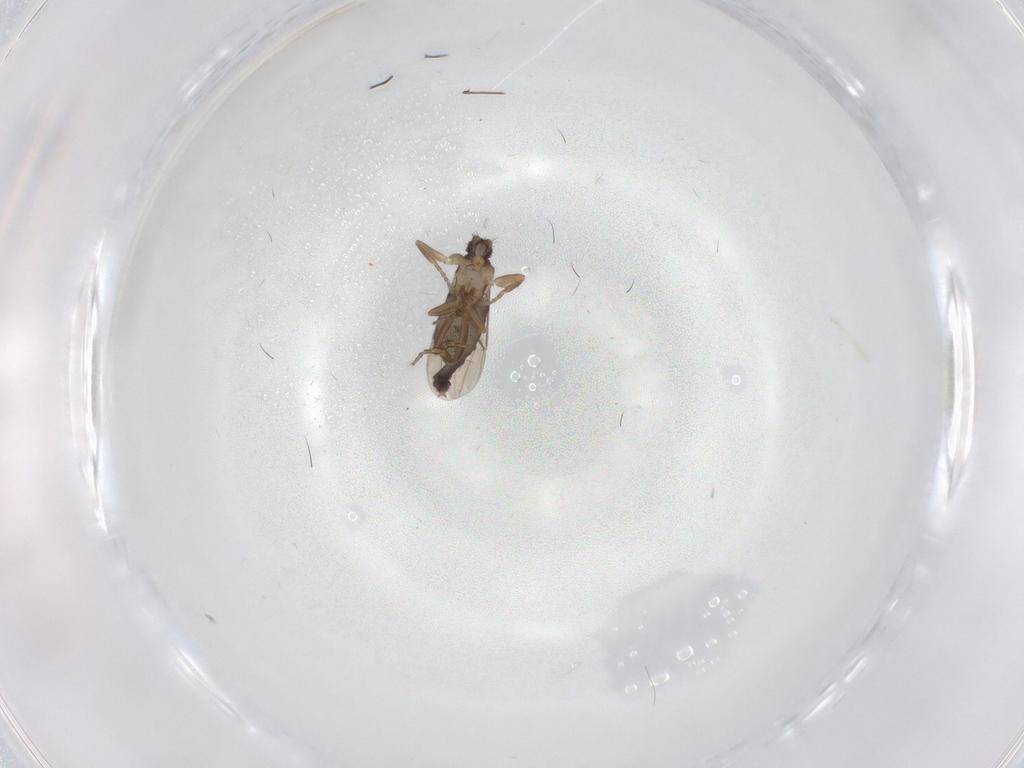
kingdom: Animalia
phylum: Arthropoda
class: Insecta
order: Diptera
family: Phoridae
